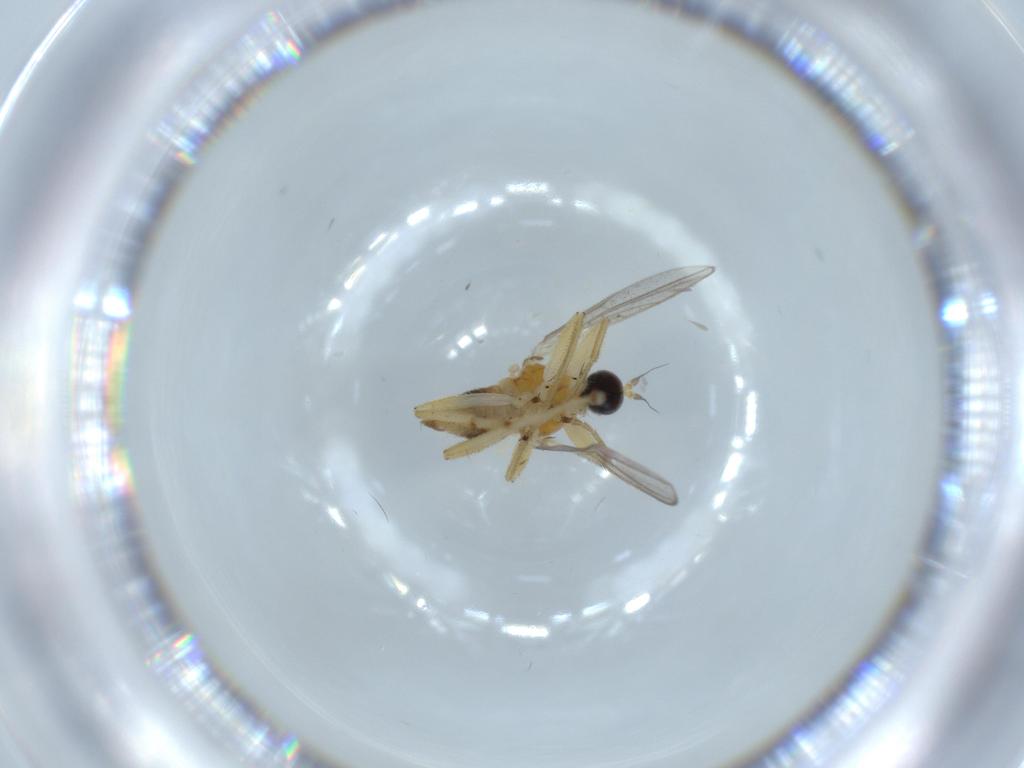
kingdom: Animalia
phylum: Arthropoda
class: Insecta
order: Diptera
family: Hybotidae
